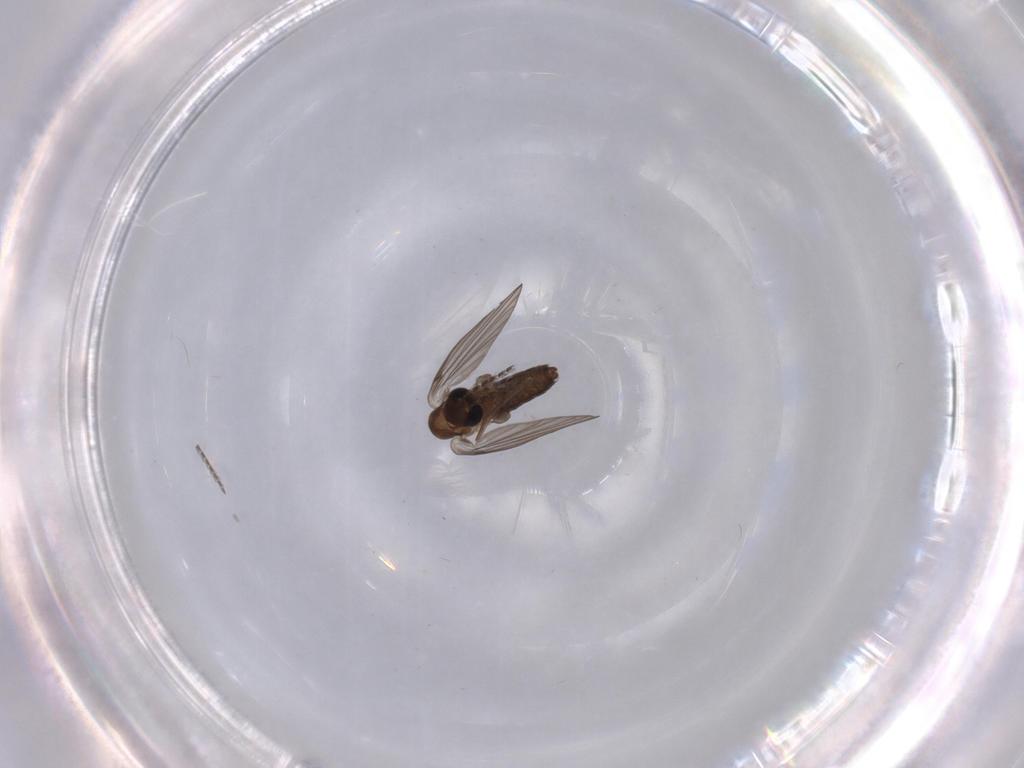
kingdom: Animalia
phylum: Arthropoda
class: Insecta
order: Diptera
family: Psychodidae
